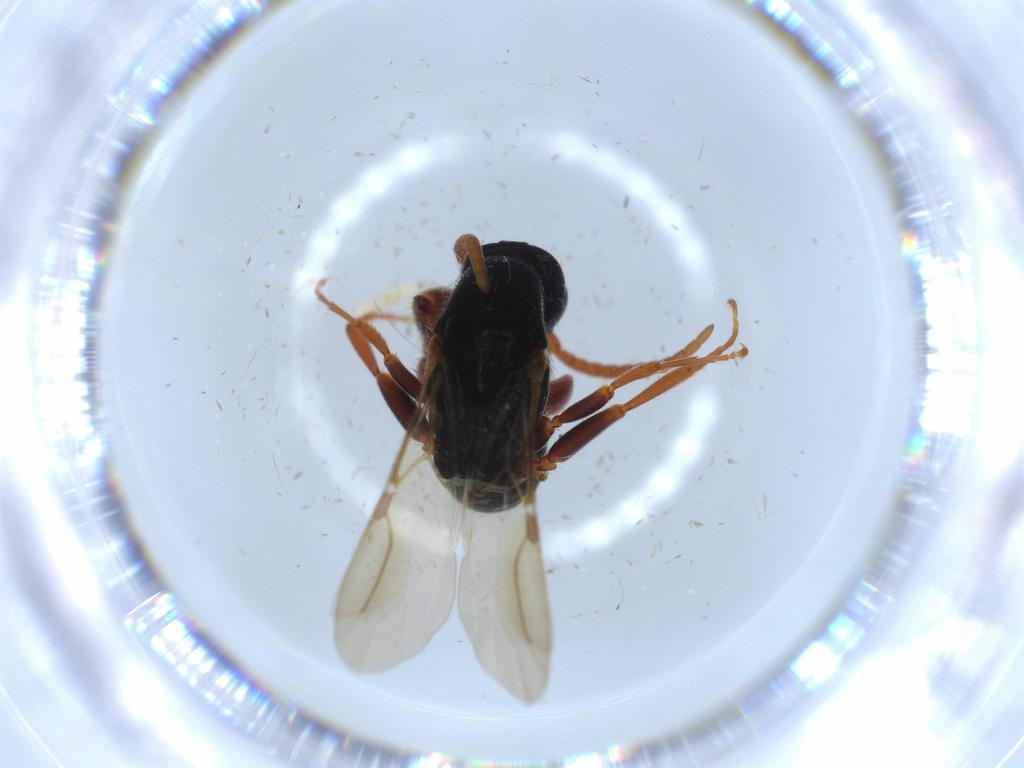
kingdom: Animalia
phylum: Arthropoda
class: Insecta
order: Hymenoptera
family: Bethylidae
